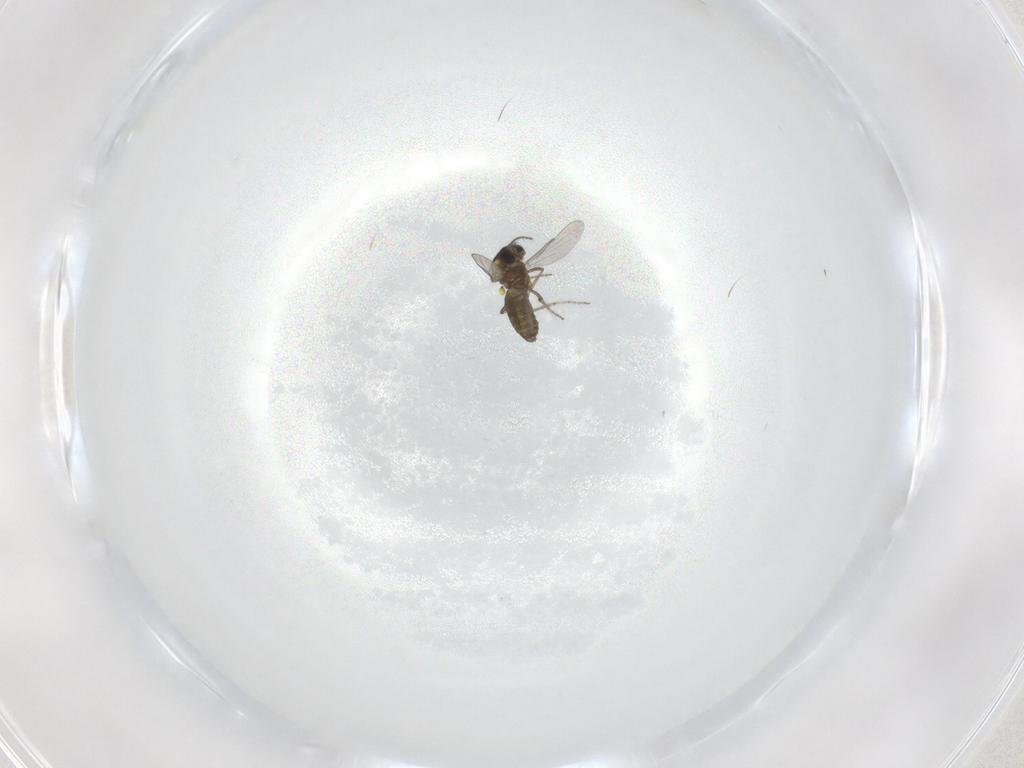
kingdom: Animalia
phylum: Arthropoda
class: Insecta
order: Diptera
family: Ceratopogonidae
